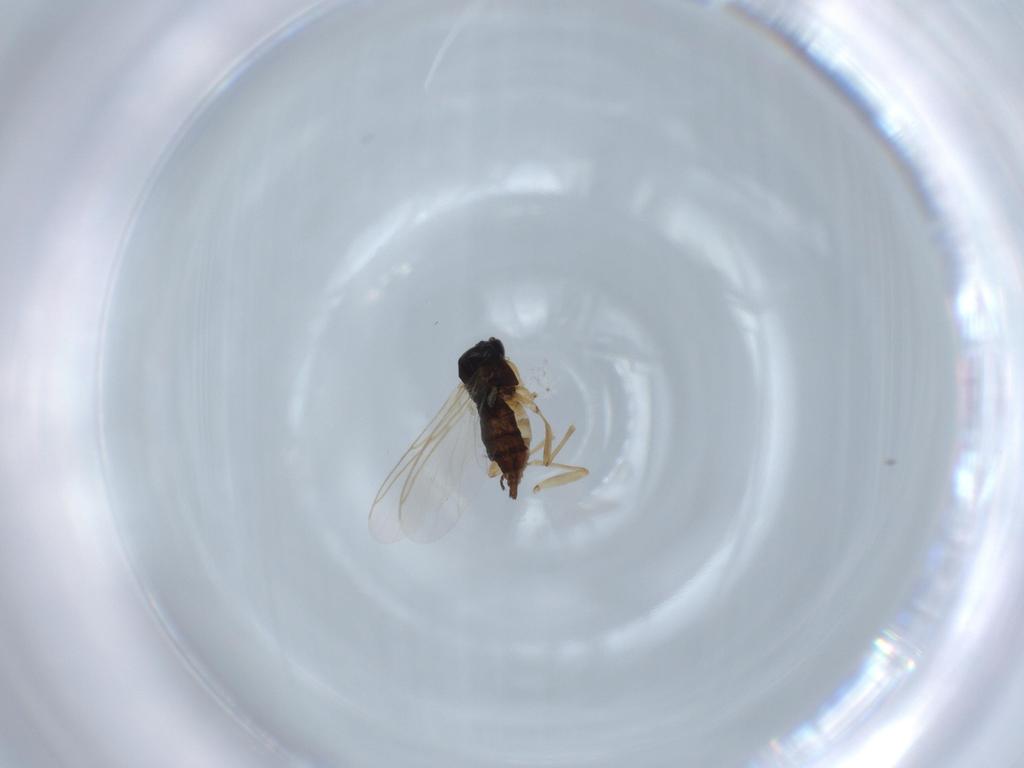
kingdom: Animalia
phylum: Arthropoda
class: Insecta
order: Diptera
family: Sciaridae
